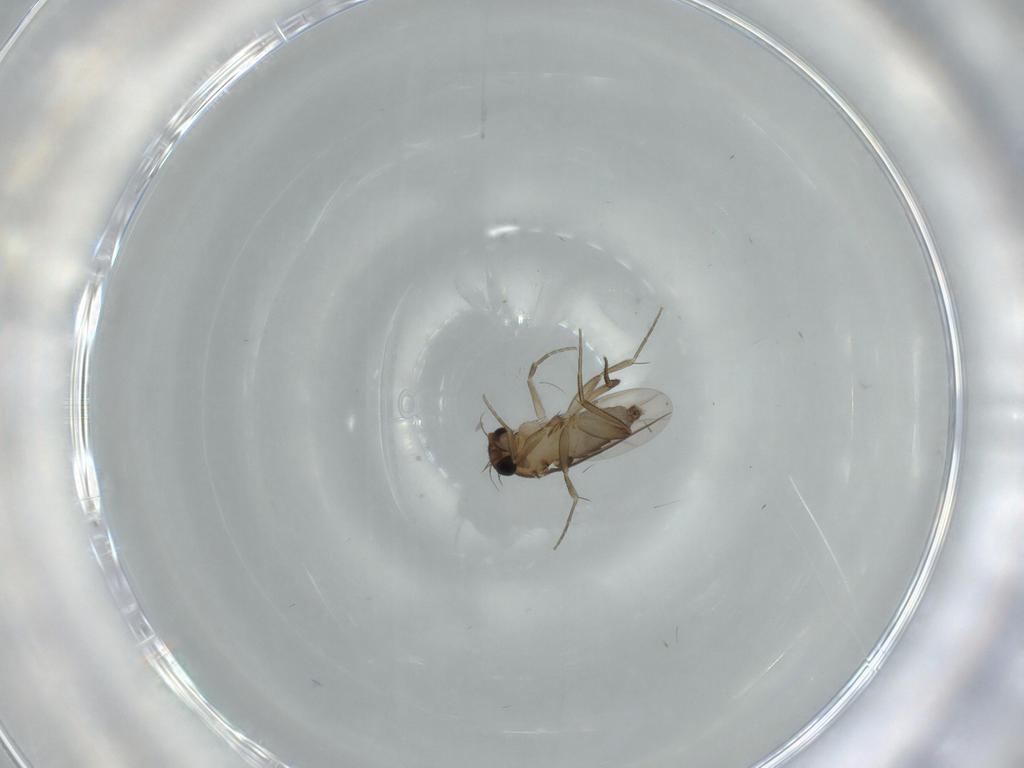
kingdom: Animalia
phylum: Arthropoda
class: Insecta
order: Diptera
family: Phoridae
